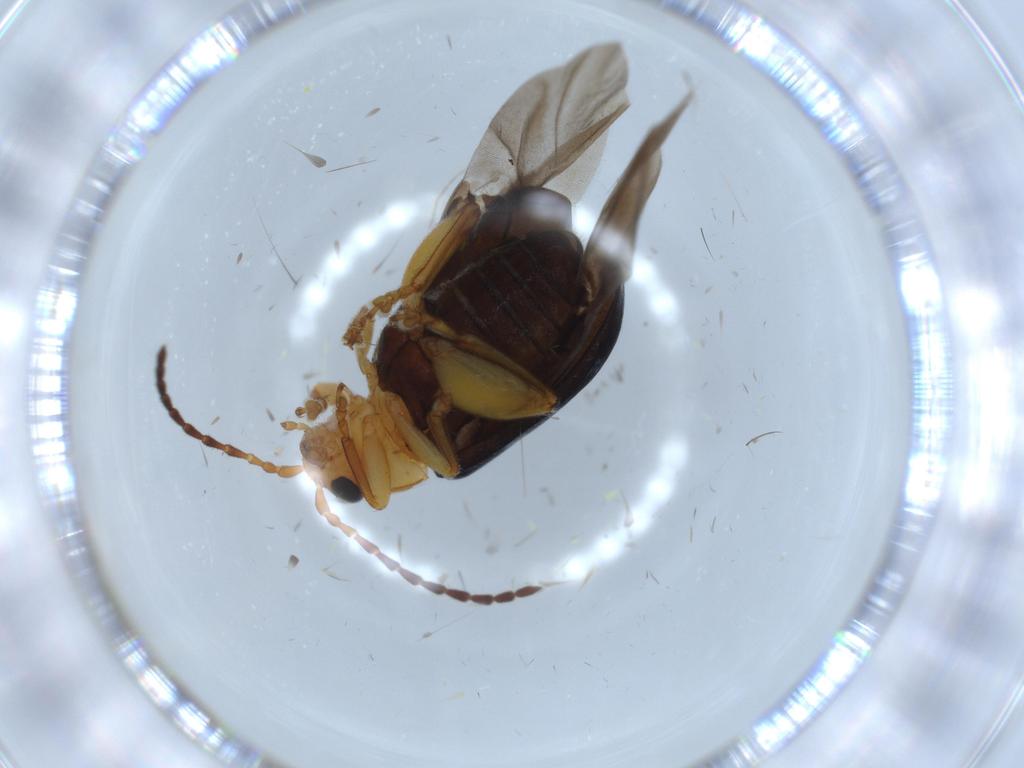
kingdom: Animalia
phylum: Arthropoda
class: Insecta
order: Coleoptera
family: Chrysomelidae
